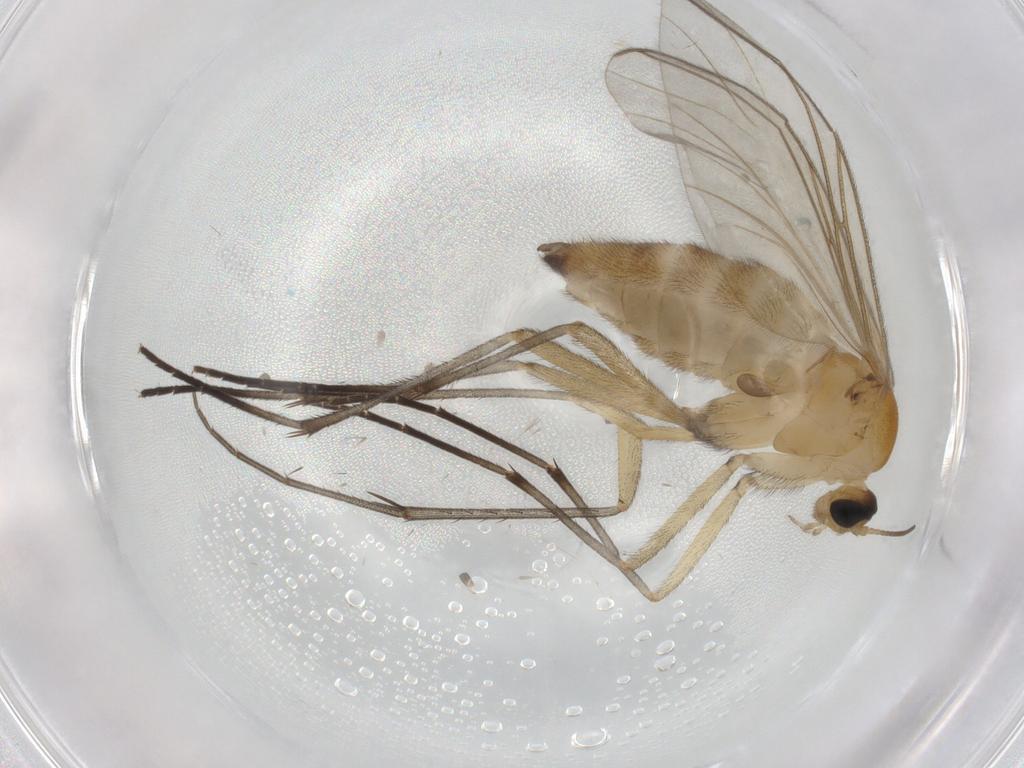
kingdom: Animalia
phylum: Arthropoda
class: Insecta
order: Diptera
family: Sciaridae
